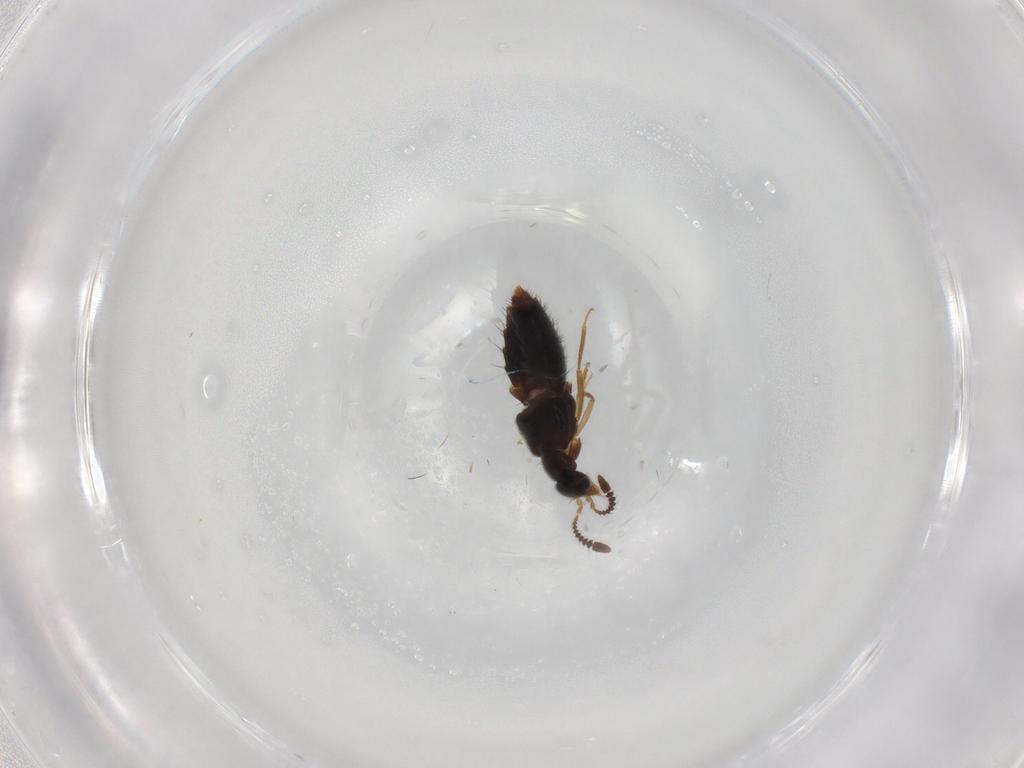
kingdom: Animalia
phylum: Arthropoda
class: Insecta
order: Coleoptera
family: Staphylinidae
